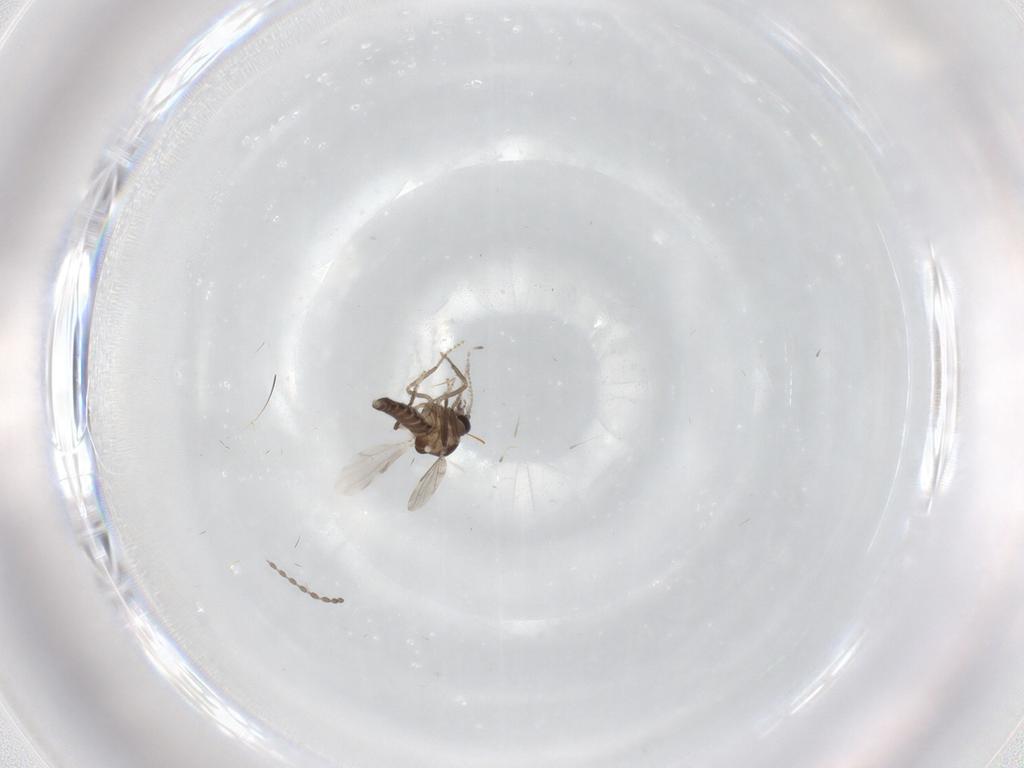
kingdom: Animalia
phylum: Arthropoda
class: Insecta
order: Diptera
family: Ceratopogonidae
